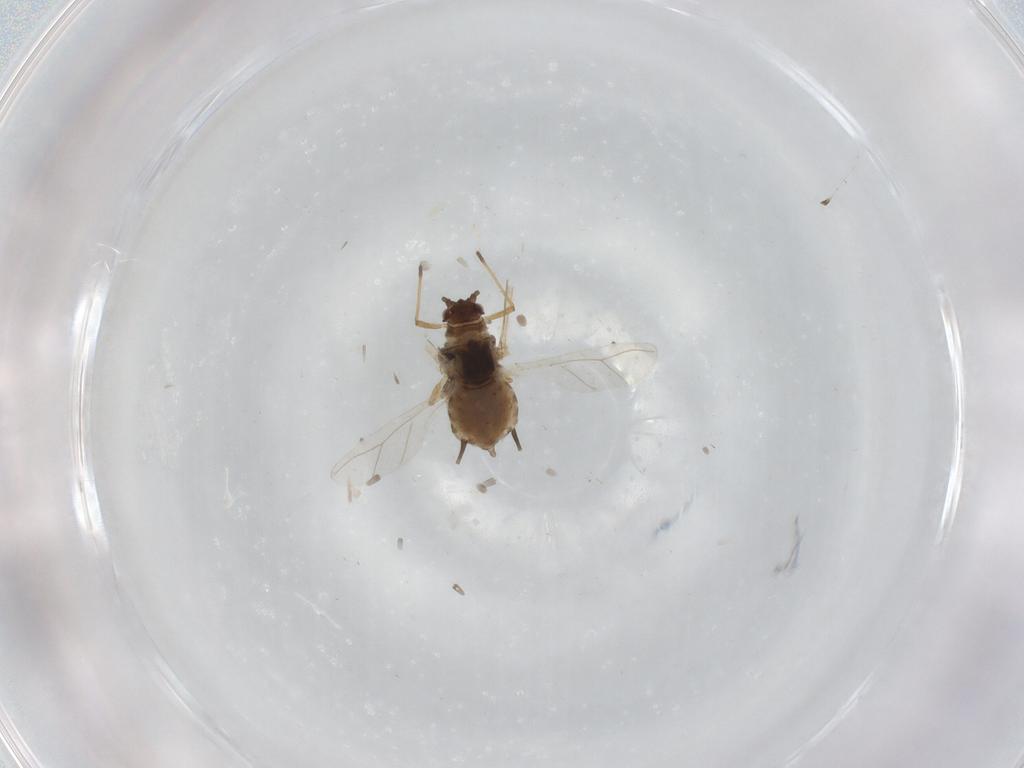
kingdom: Animalia
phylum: Arthropoda
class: Insecta
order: Hemiptera
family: Aphididae
